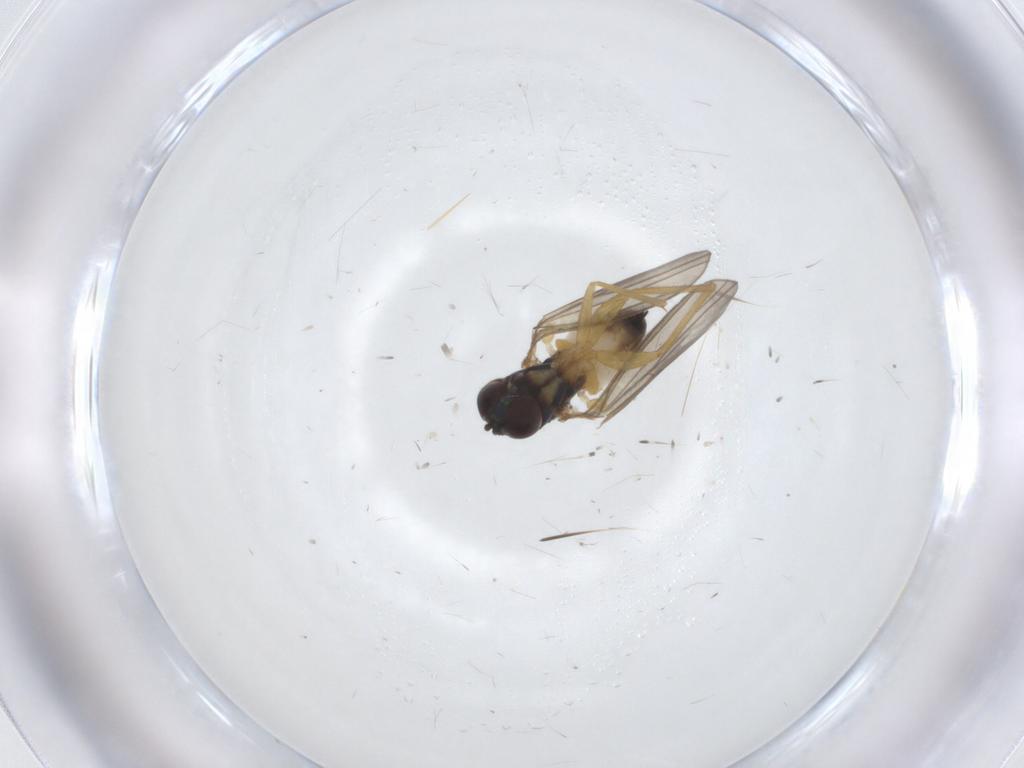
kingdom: Animalia
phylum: Arthropoda
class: Insecta
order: Diptera
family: Dolichopodidae
